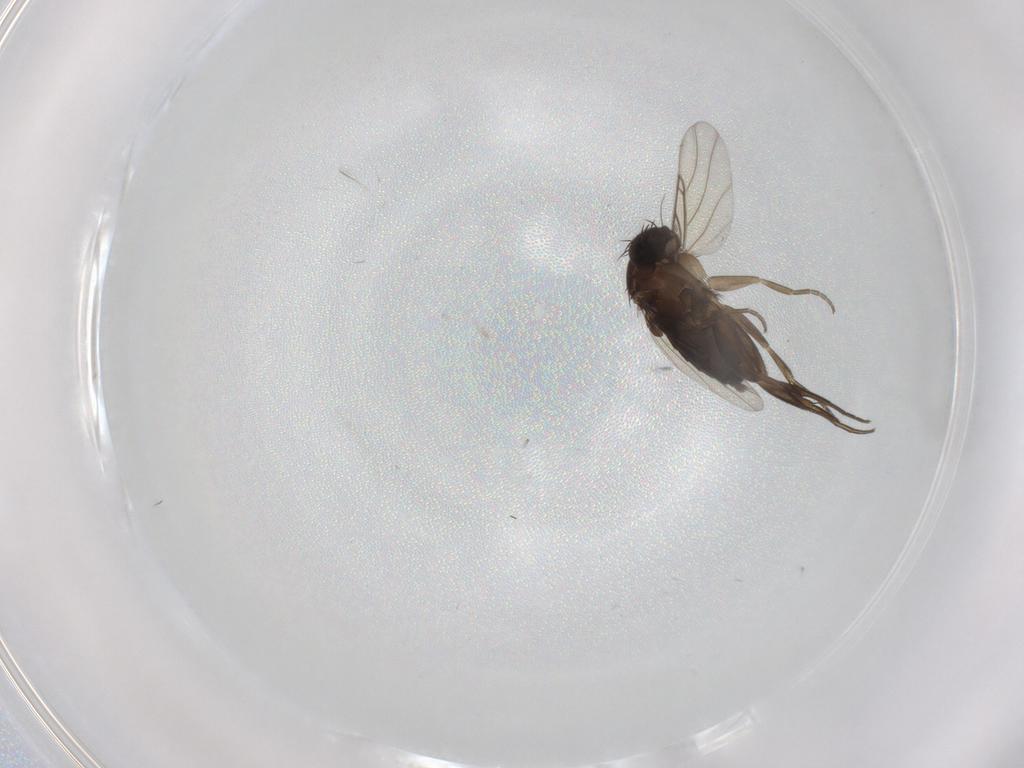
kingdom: Animalia
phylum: Arthropoda
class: Insecta
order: Diptera
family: Phoridae
